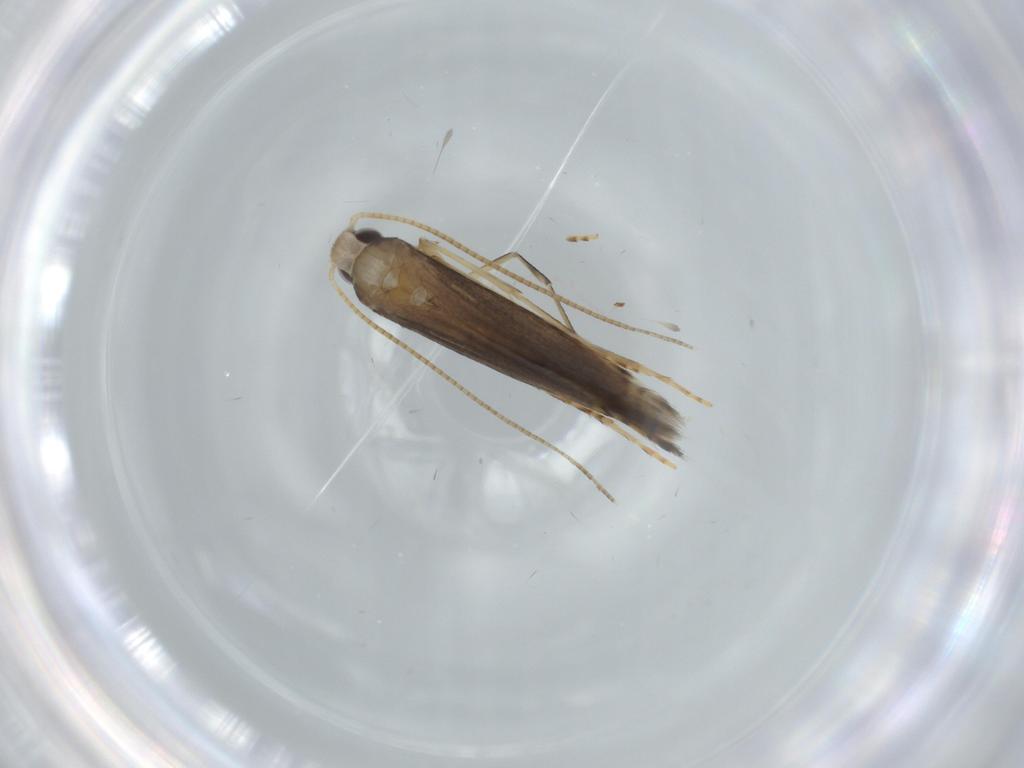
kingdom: Animalia
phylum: Arthropoda
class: Insecta
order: Lepidoptera
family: Gracillariidae
